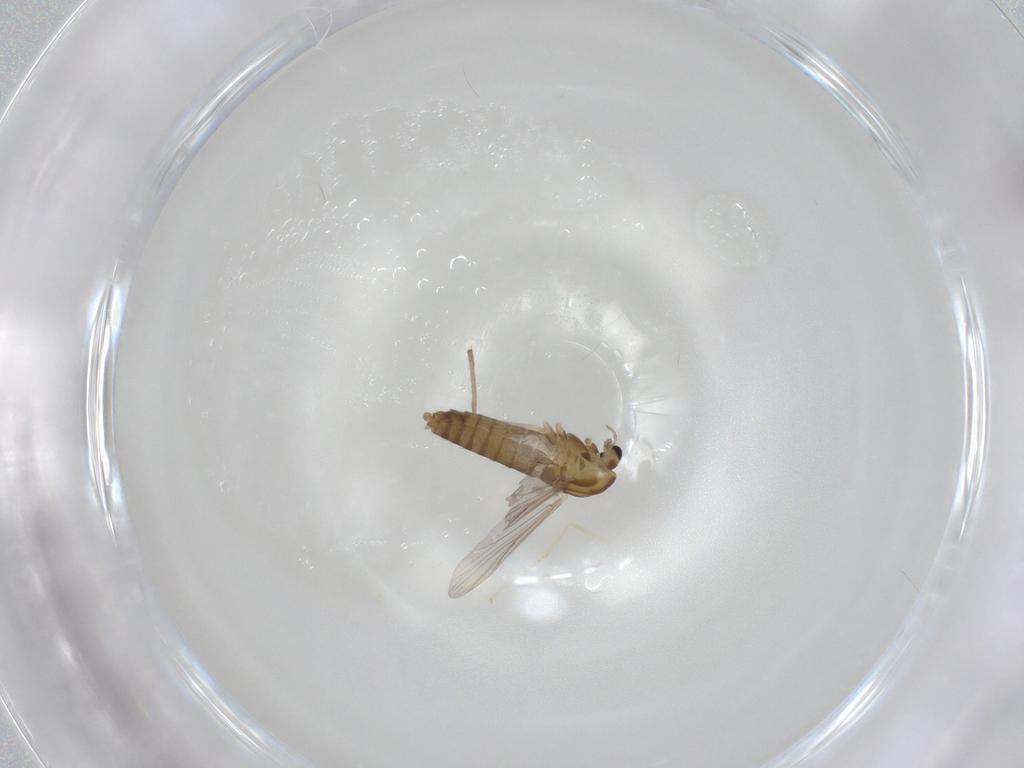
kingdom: Animalia
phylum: Arthropoda
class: Insecta
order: Diptera
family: Chironomidae
